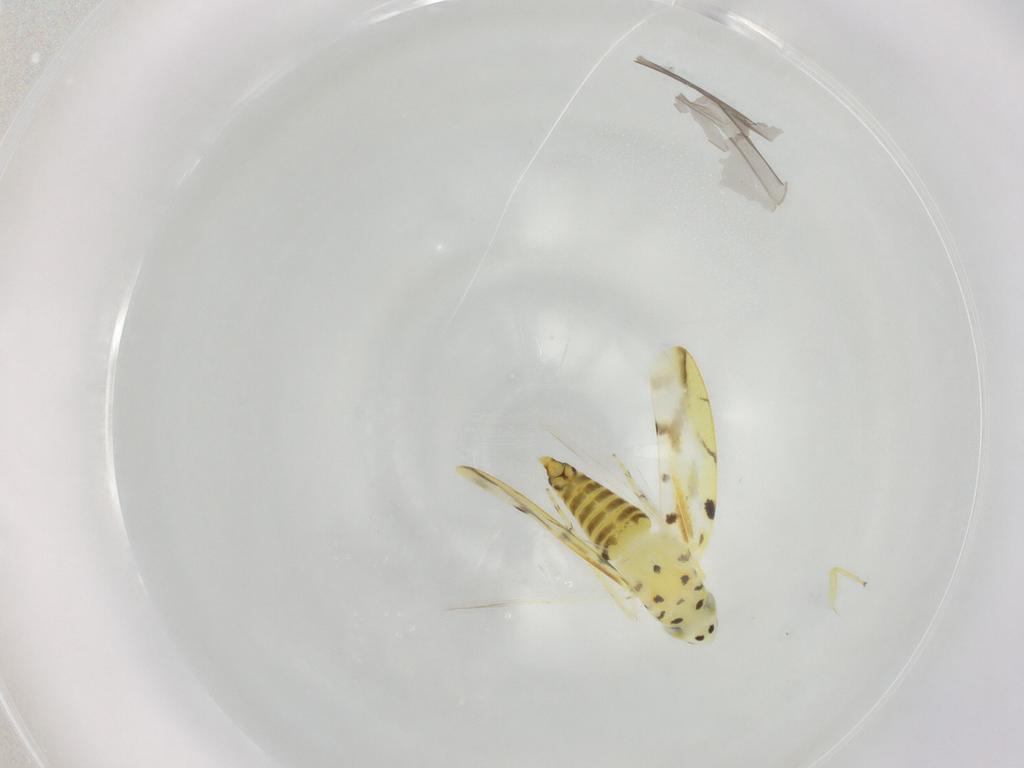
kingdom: Animalia
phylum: Arthropoda
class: Insecta
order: Hemiptera
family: Cicadellidae
